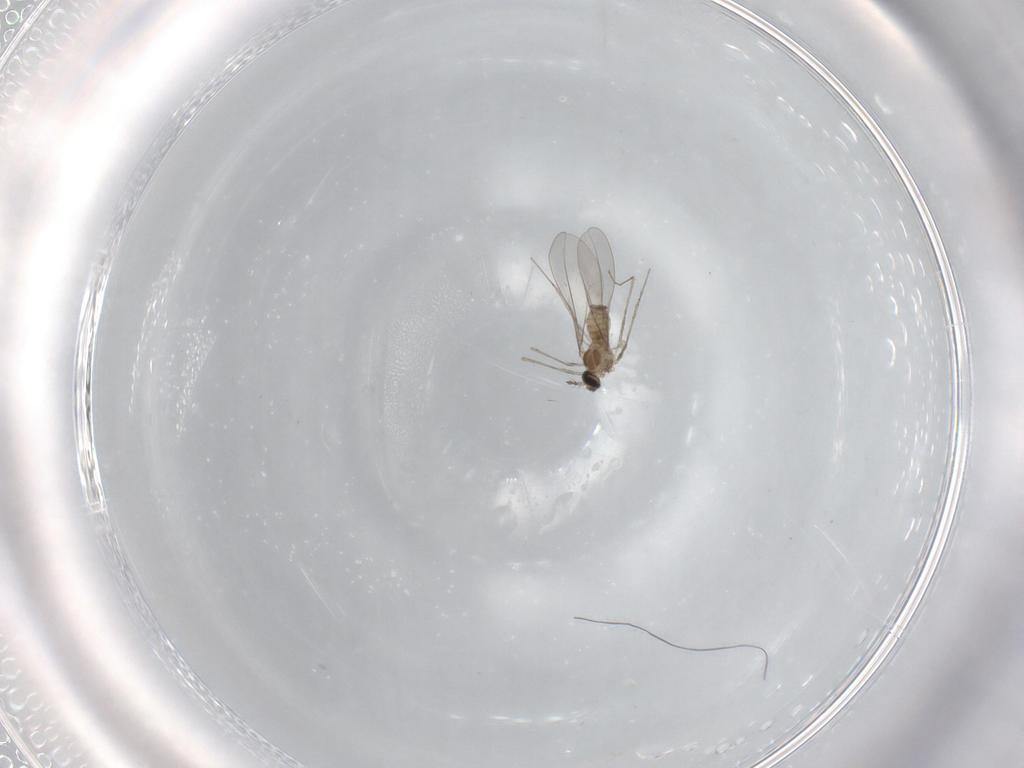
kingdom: Animalia
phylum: Arthropoda
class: Insecta
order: Diptera
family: Cecidomyiidae
